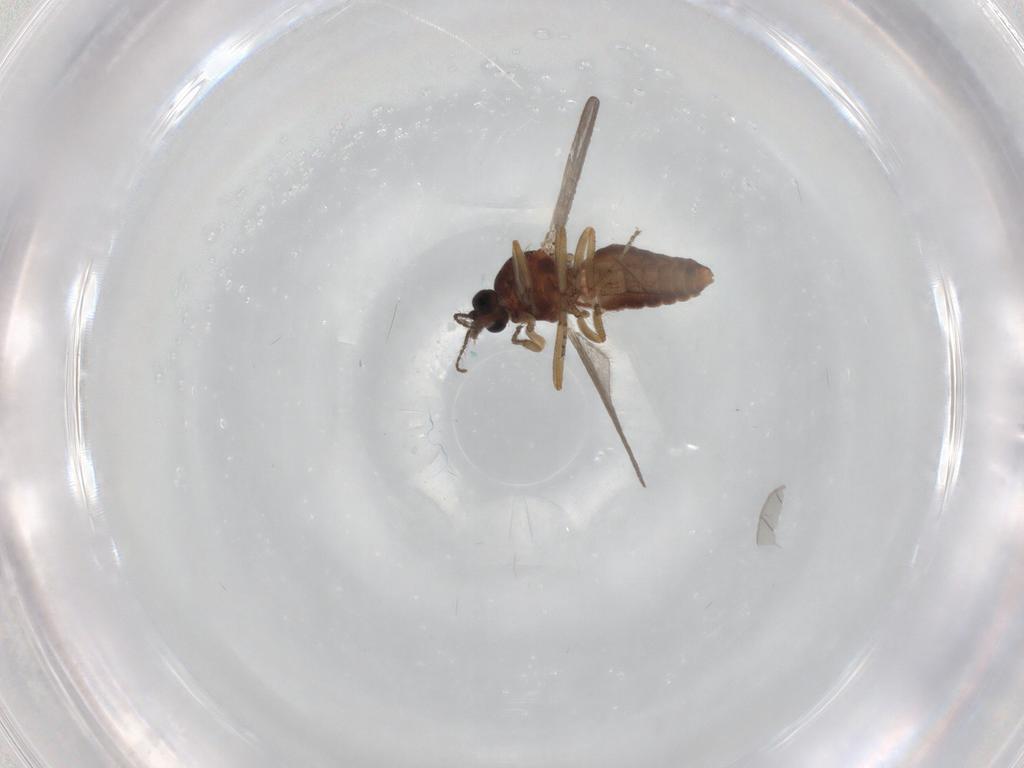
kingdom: Animalia
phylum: Arthropoda
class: Insecta
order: Diptera
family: Ceratopogonidae
